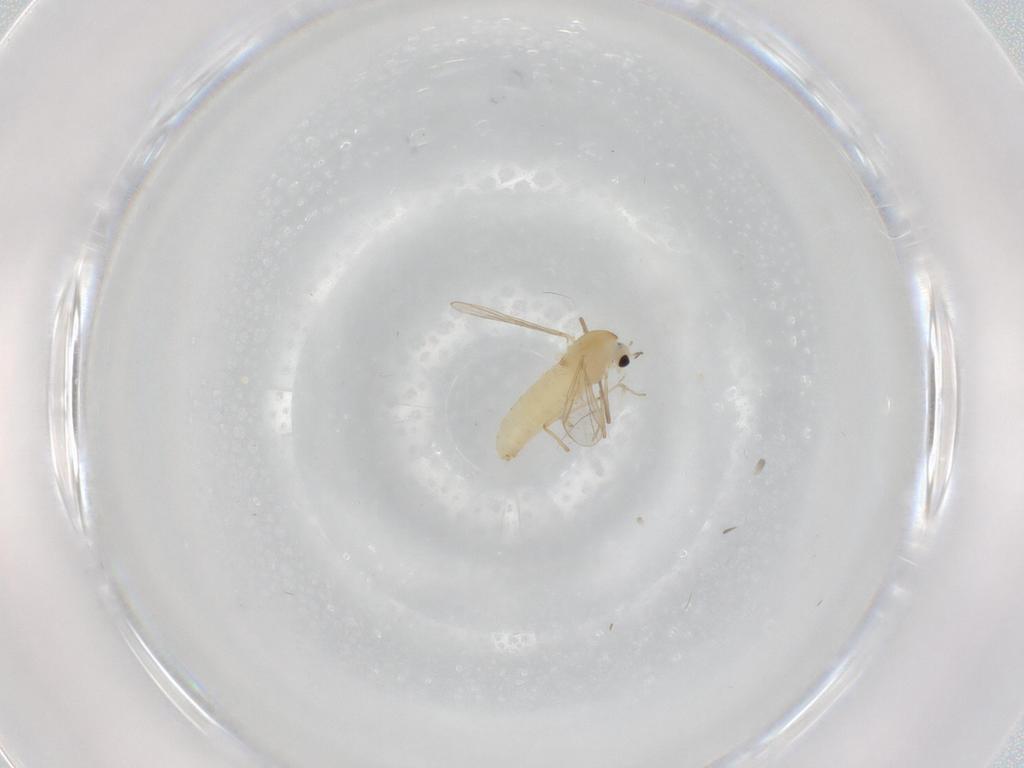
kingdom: Animalia
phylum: Arthropoda
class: Insecta
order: Diptera
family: Chironomidae
